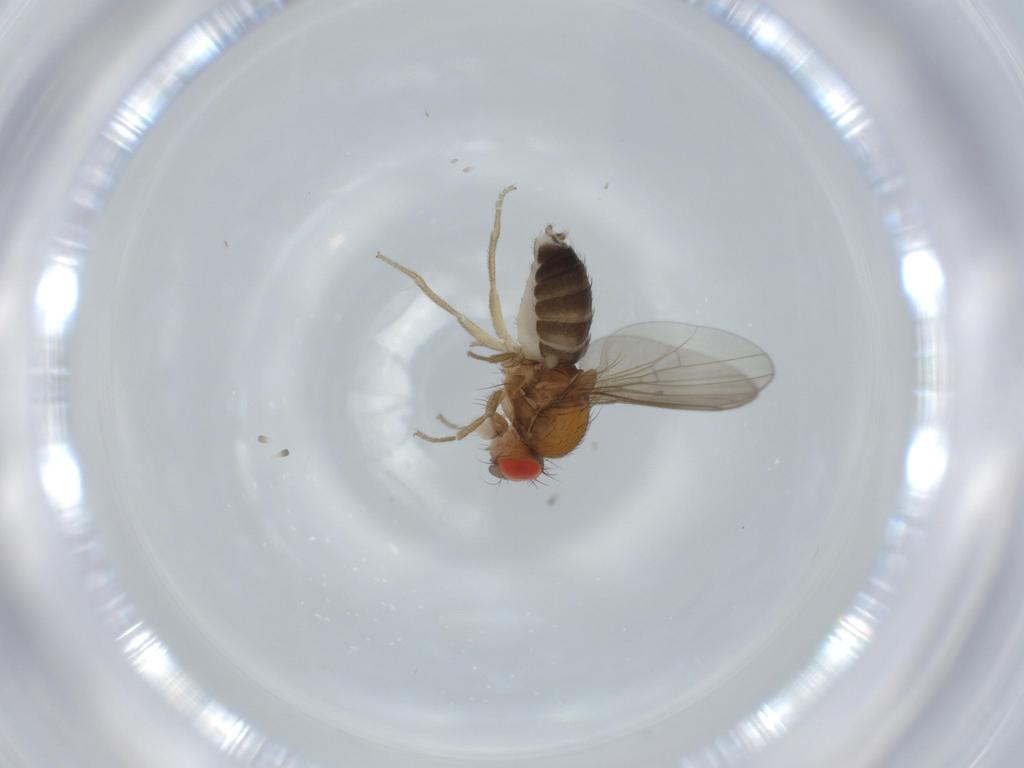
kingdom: Animalia
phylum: Arthropoda
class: Insecta
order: Diptera
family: Drosophilidae
